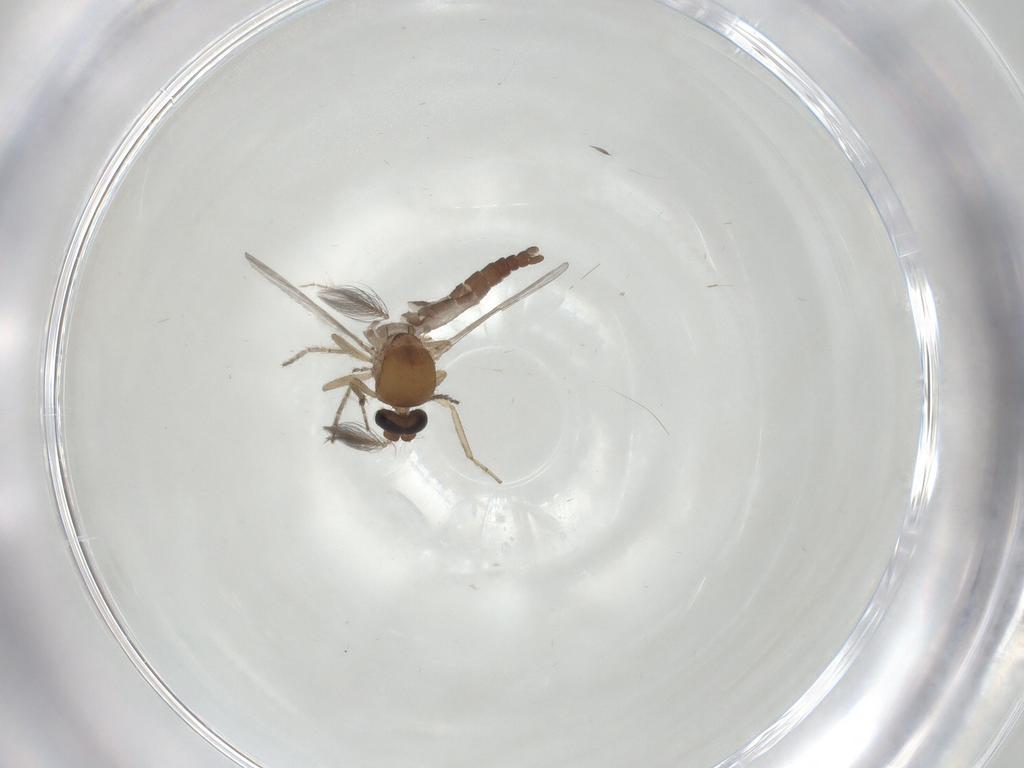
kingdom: Animalia
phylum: Arthropoda
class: Insecta
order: Diptera
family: Ceratopogonidae
